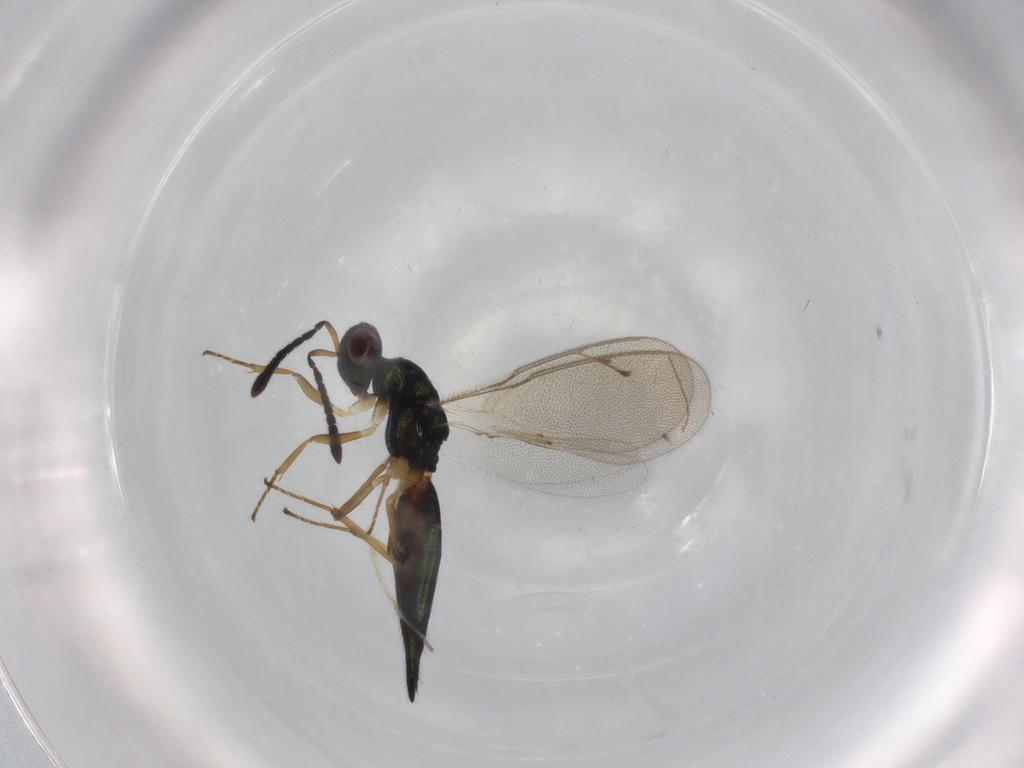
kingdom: Animalia
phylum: Arthropoda
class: Insecta
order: Hymenoptera
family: Pteromalidae
